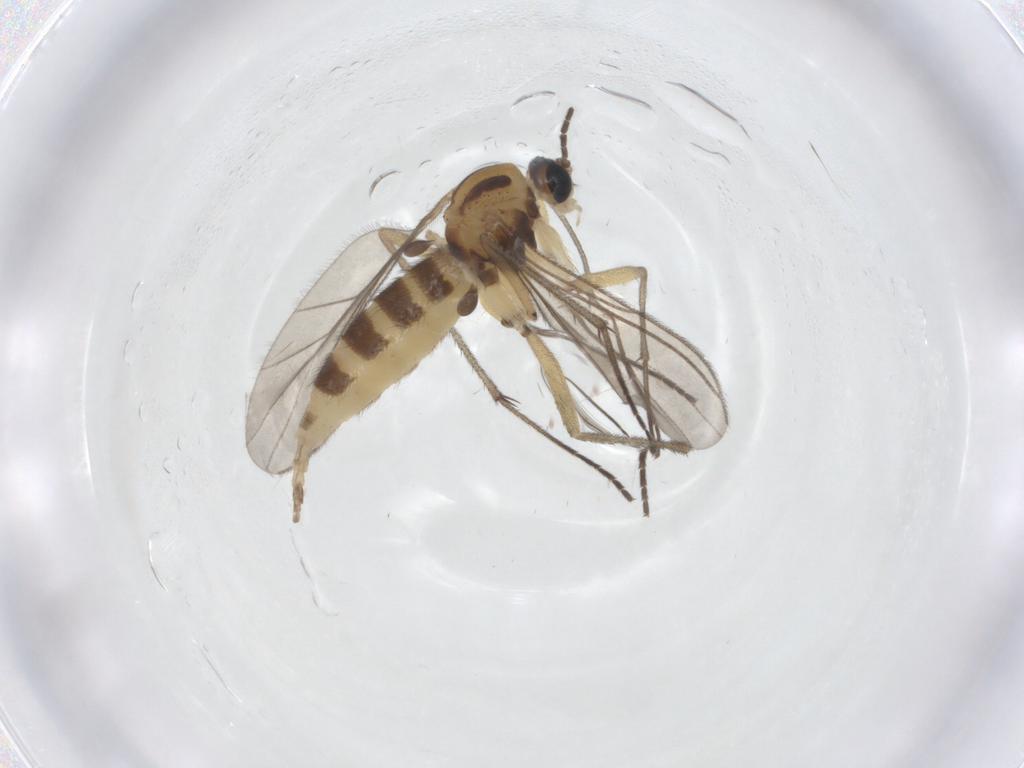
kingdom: Animalia
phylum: Arthropoda
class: Insecta
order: Diptera
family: Sciaridae
